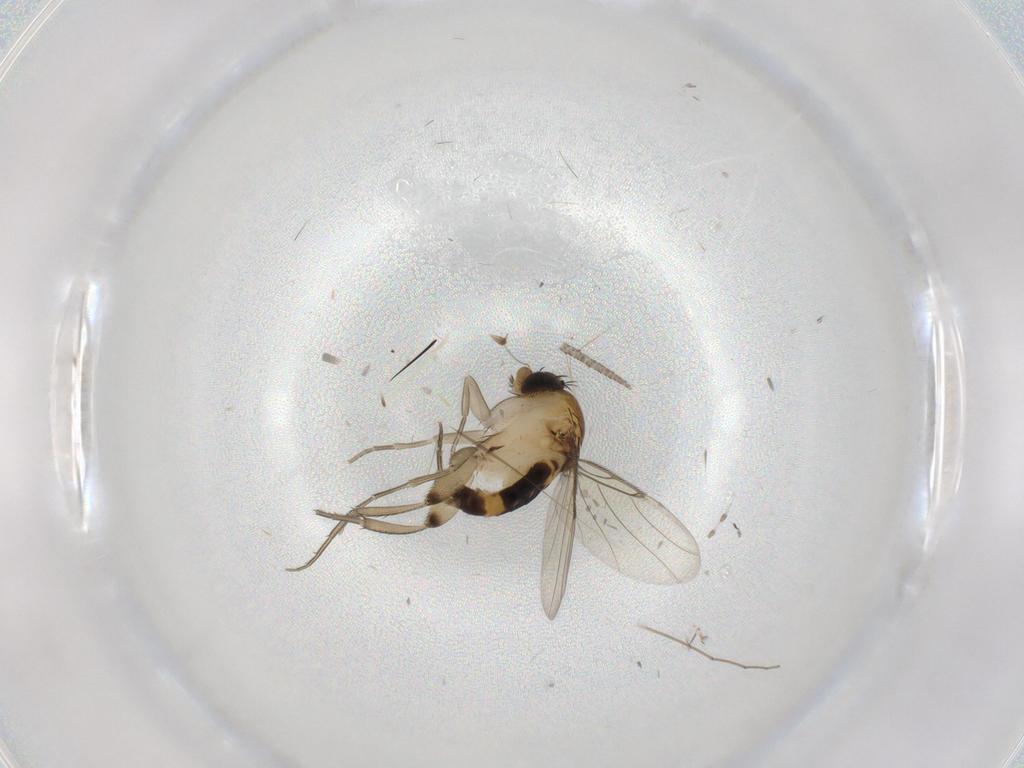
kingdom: Animalia
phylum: Arthropoda
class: Insecta
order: Diptera
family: Phoridae
